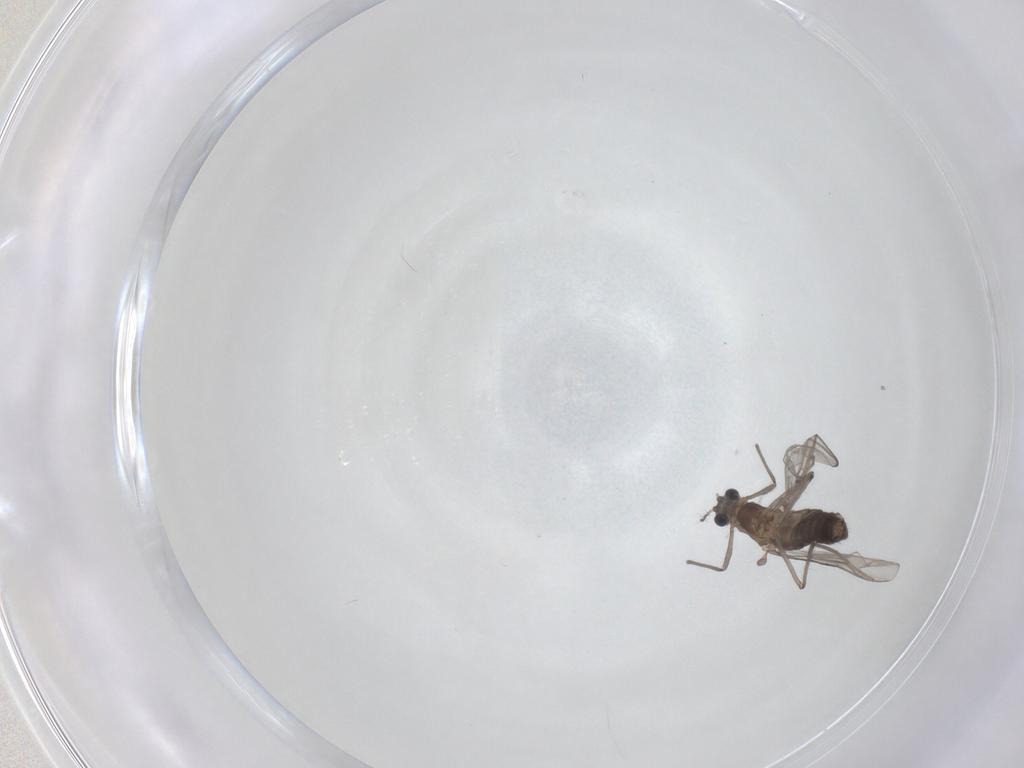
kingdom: Animalia
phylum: Arthropoda
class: Insecta
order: Diptera
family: Chironomidae
